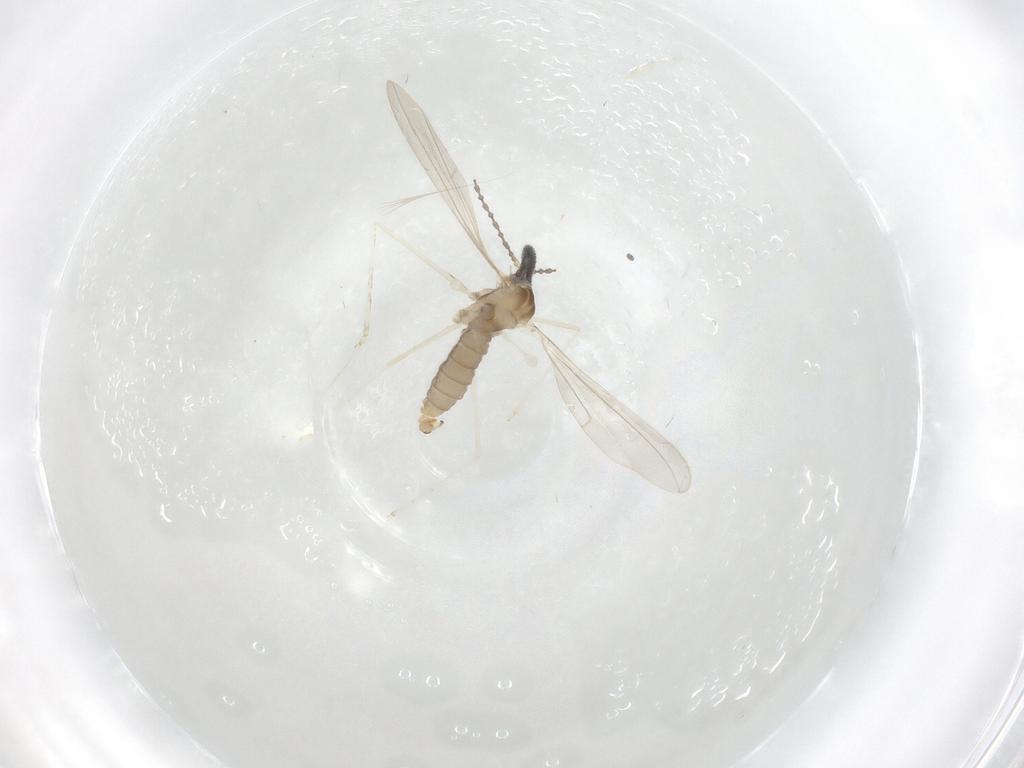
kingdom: Animalia
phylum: Arthropoda
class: Insecta
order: Diptera
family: Cecidomyiidae
